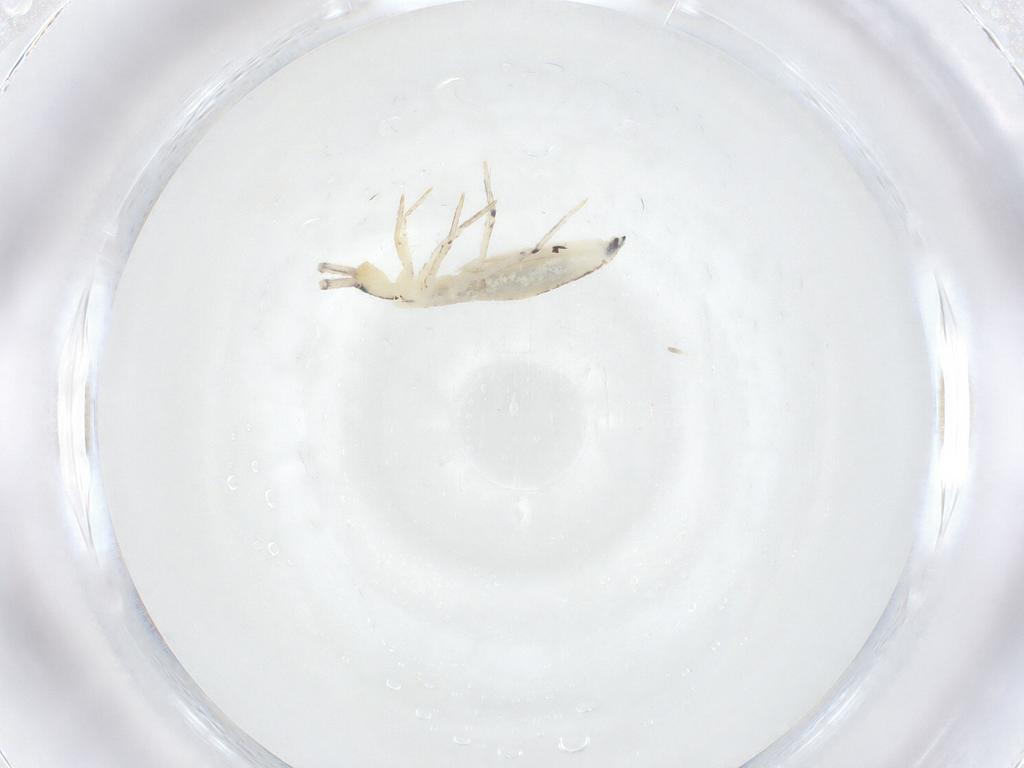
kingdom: Animalia
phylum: Arthropoda
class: Collembola
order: Entomobryomorpha
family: Entomobryidae
